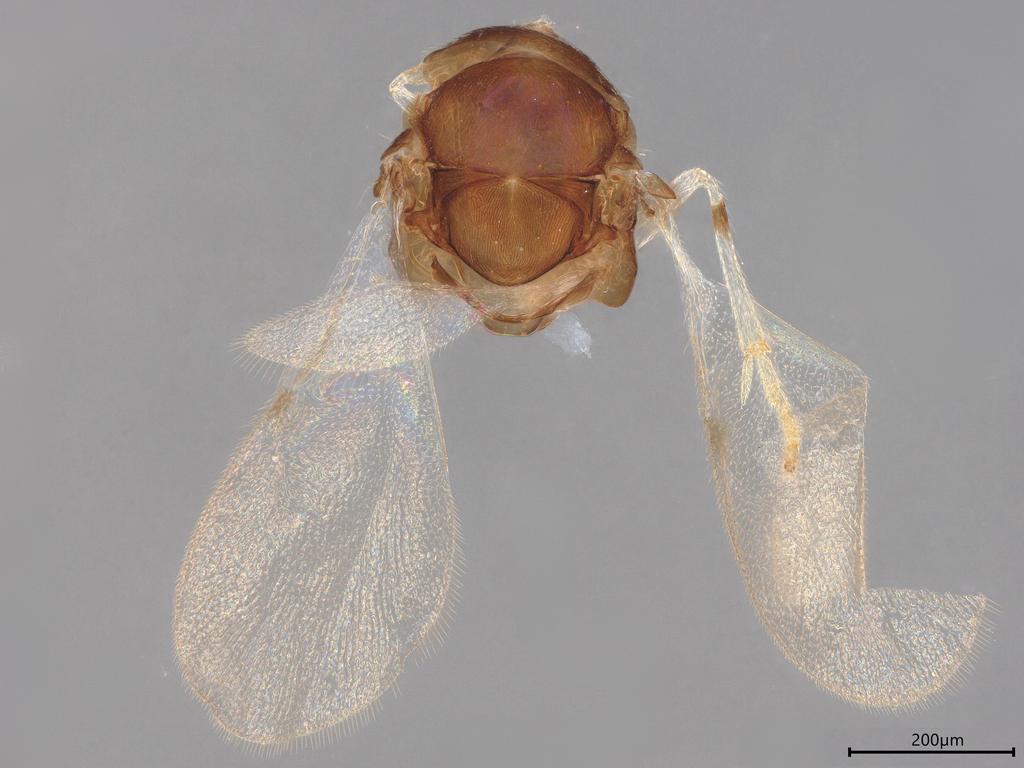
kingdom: Animalia
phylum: Arthropoda
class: Insecta
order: Hymenoptera
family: Encyrtidae
